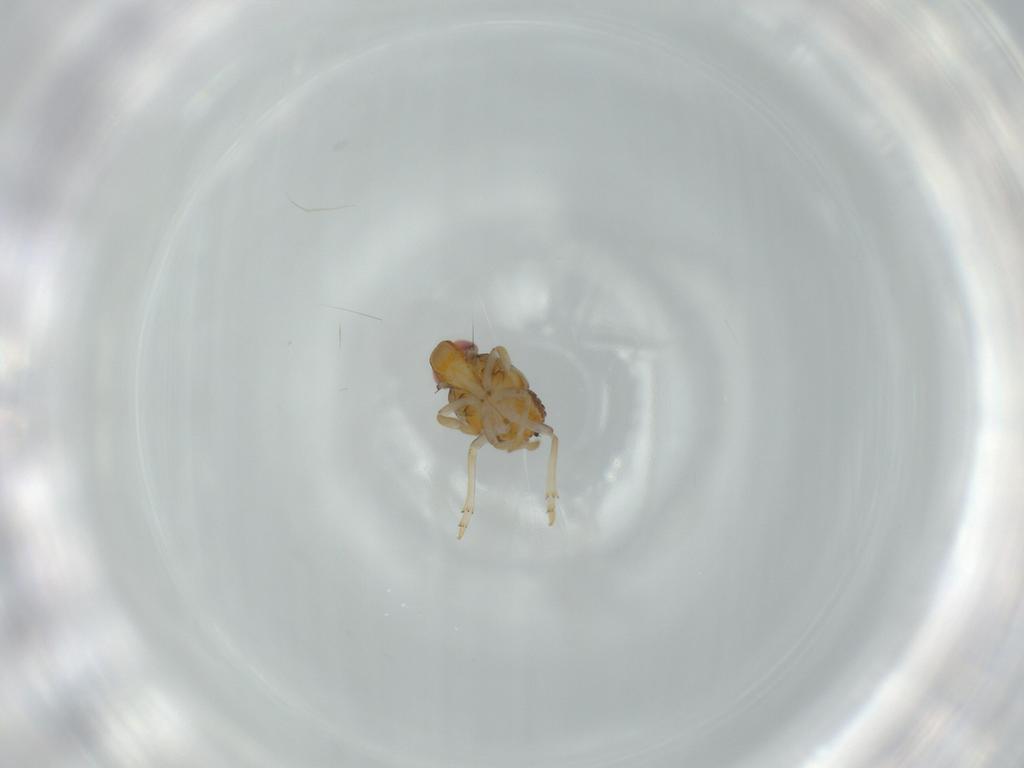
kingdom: Animalia
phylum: Arthropoda
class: Insecta
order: Hemiptera
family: Issidae
